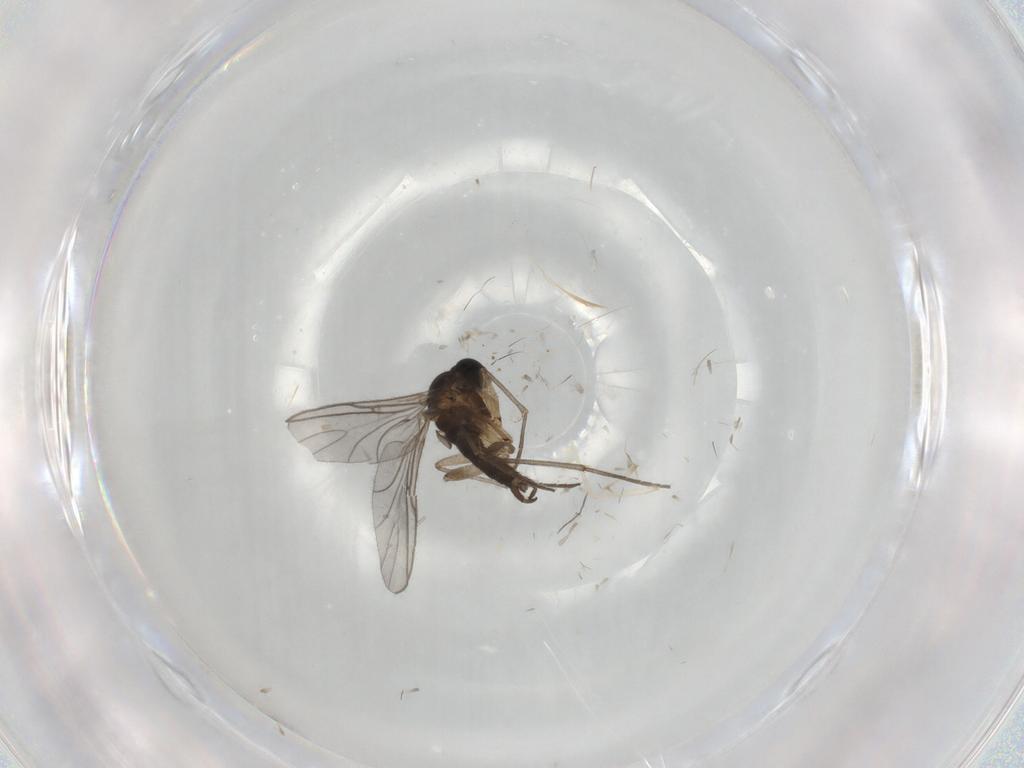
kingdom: Animalia
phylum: Arthropoda
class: Insecta
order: Diptera
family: Cecidomyiidae
